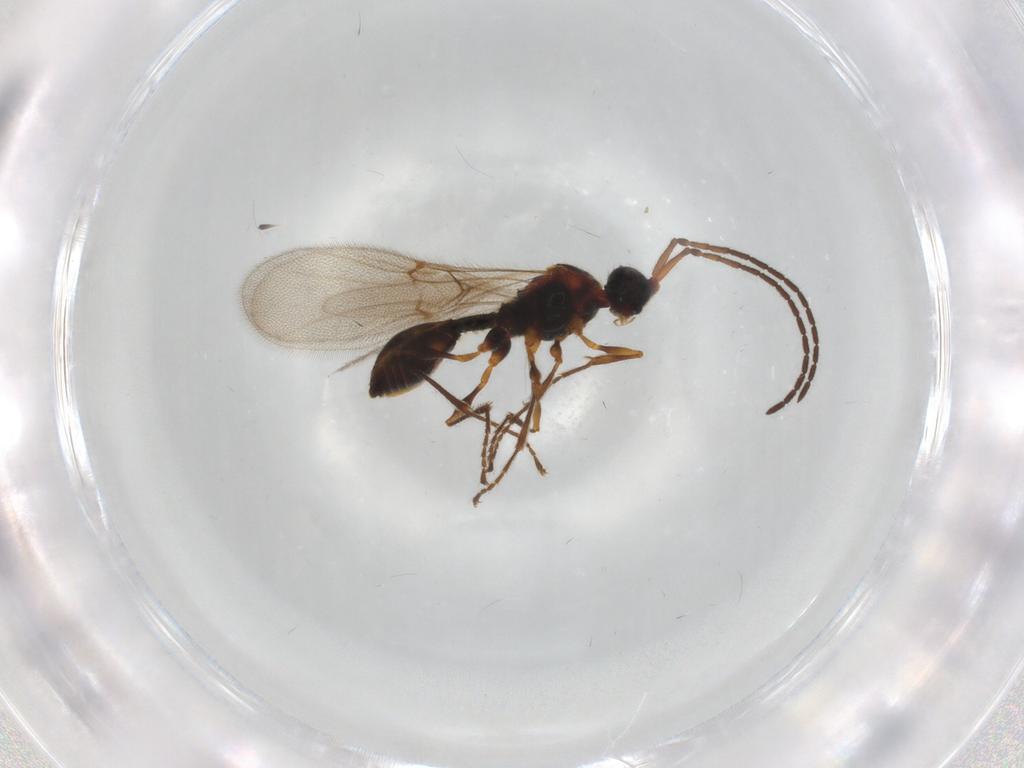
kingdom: Animalia
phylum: Arthropoda
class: Insecta
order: Hymenoptera
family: Diapriidae
